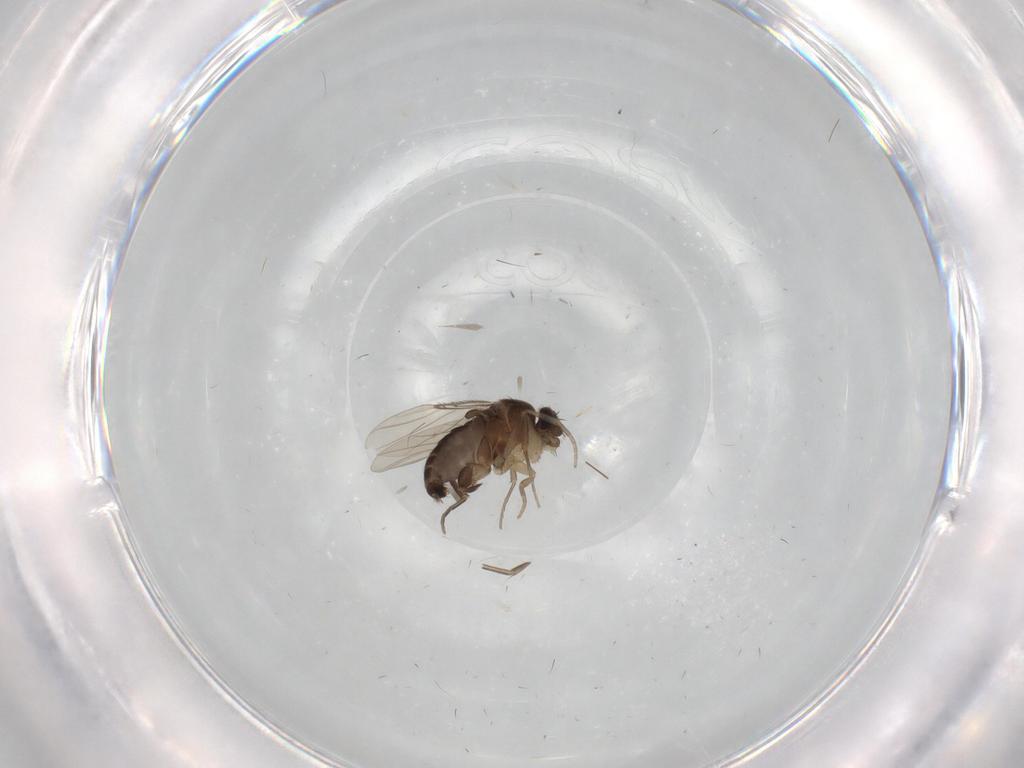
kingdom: Animalia
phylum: Arthropoda
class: Insecta
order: Diptera
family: Phoridae
